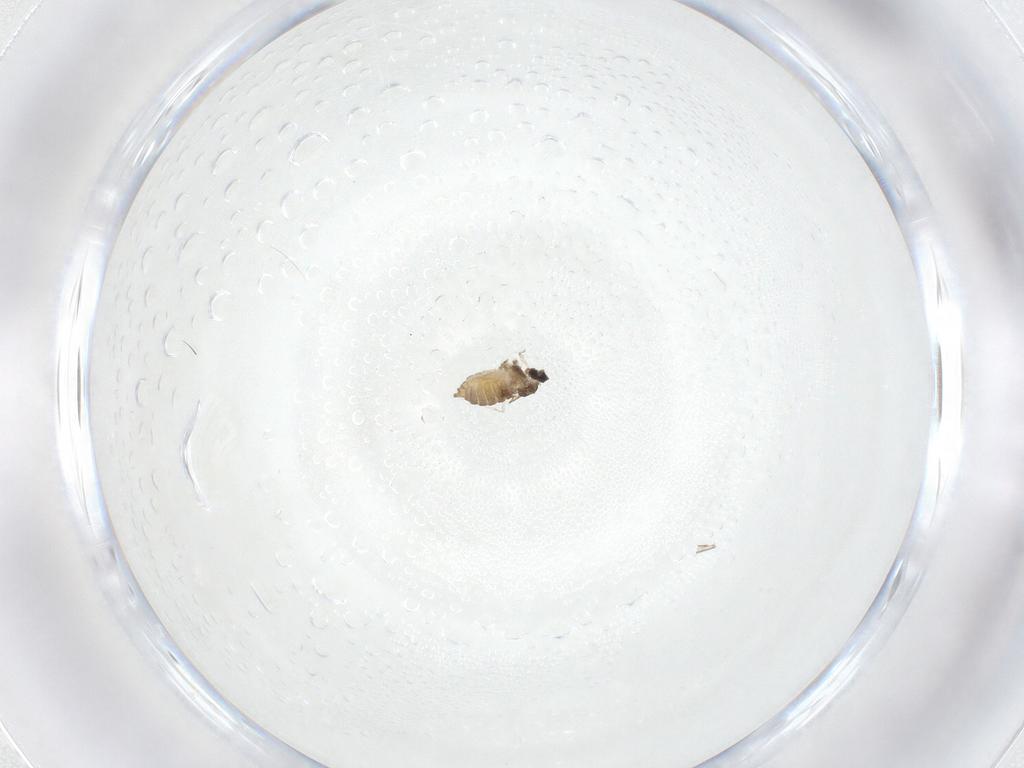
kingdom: Animalia
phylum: Arthropoda
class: Insecta
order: Diptera
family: Cecidomyiidae
